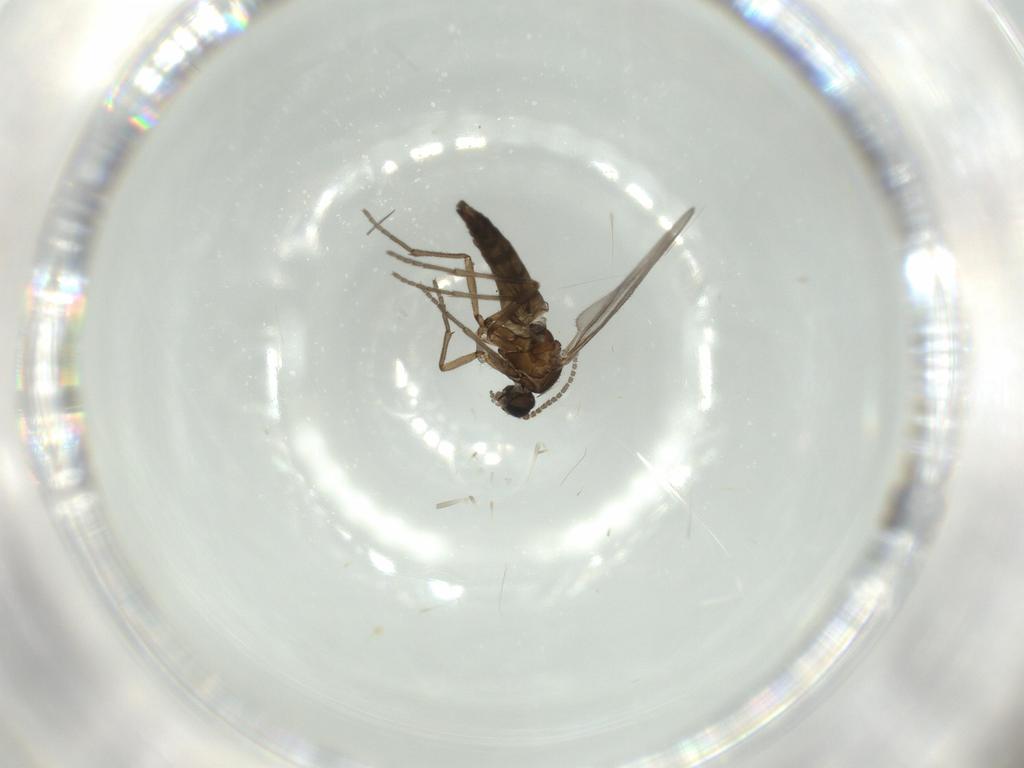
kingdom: Animalia
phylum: Arthropoda
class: Insecta
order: Diptera
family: Sciaridae
